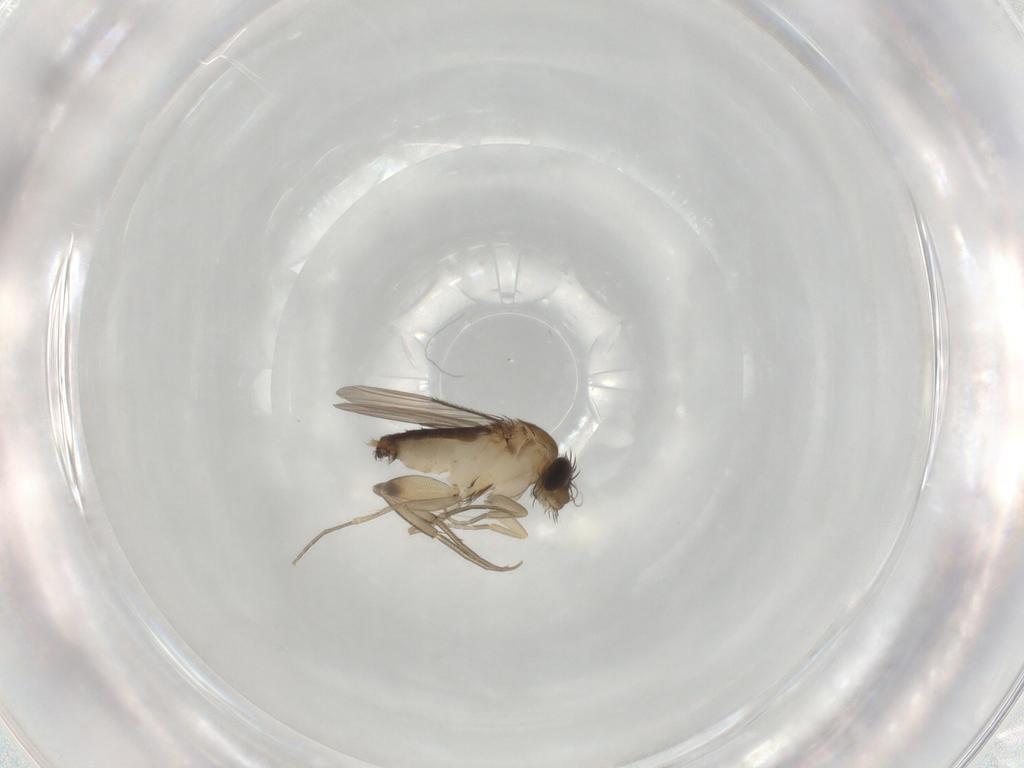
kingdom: Animalia
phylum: Arthropoda
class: Insecta
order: Diptera
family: Phoridae
